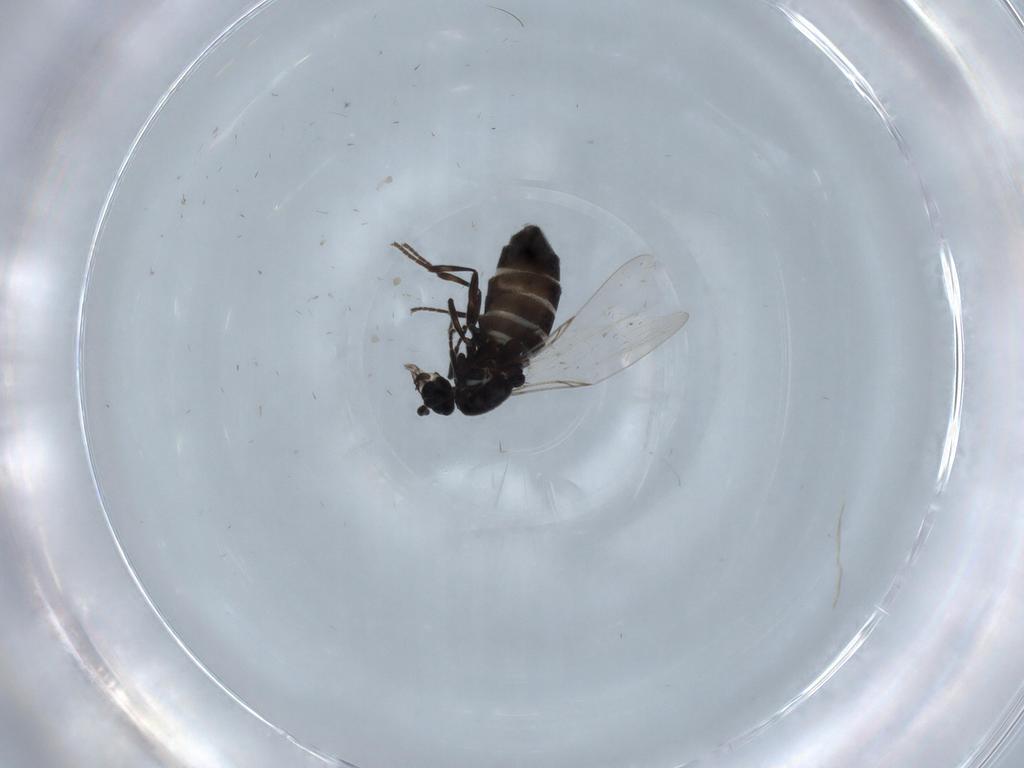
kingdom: Animalia
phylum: Arthropoda
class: Insecta
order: Diptera
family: Scatopsidae
